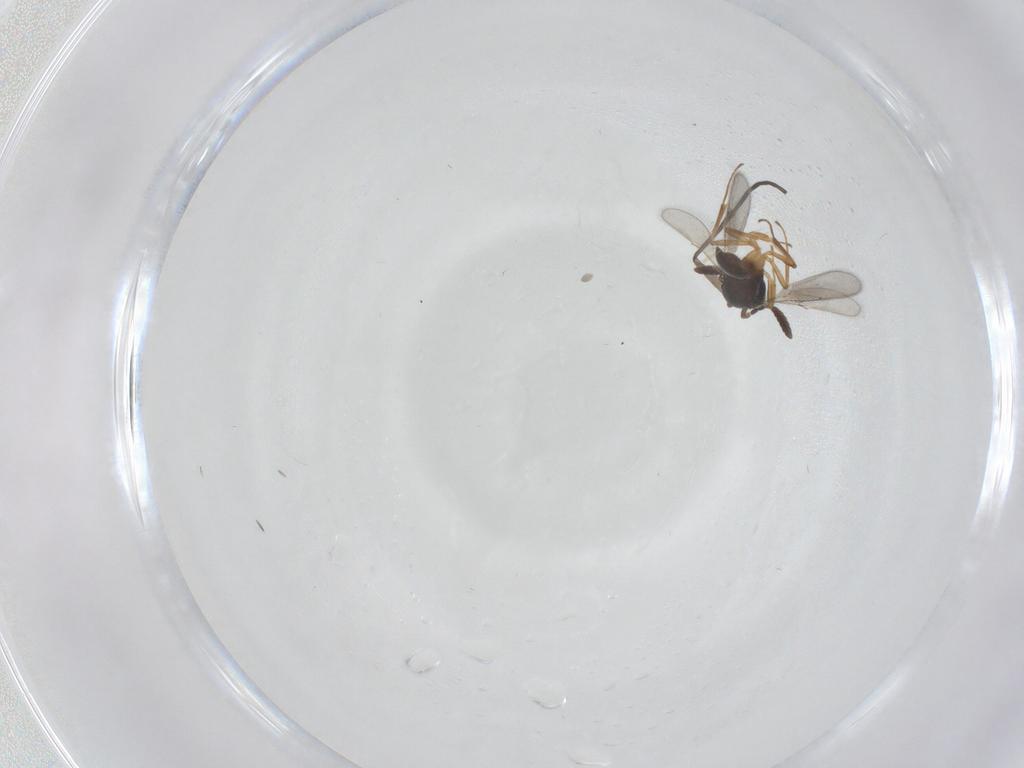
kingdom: Animalia
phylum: Arthropoda
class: Insecta
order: Hymenoptera
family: Scelionidae
